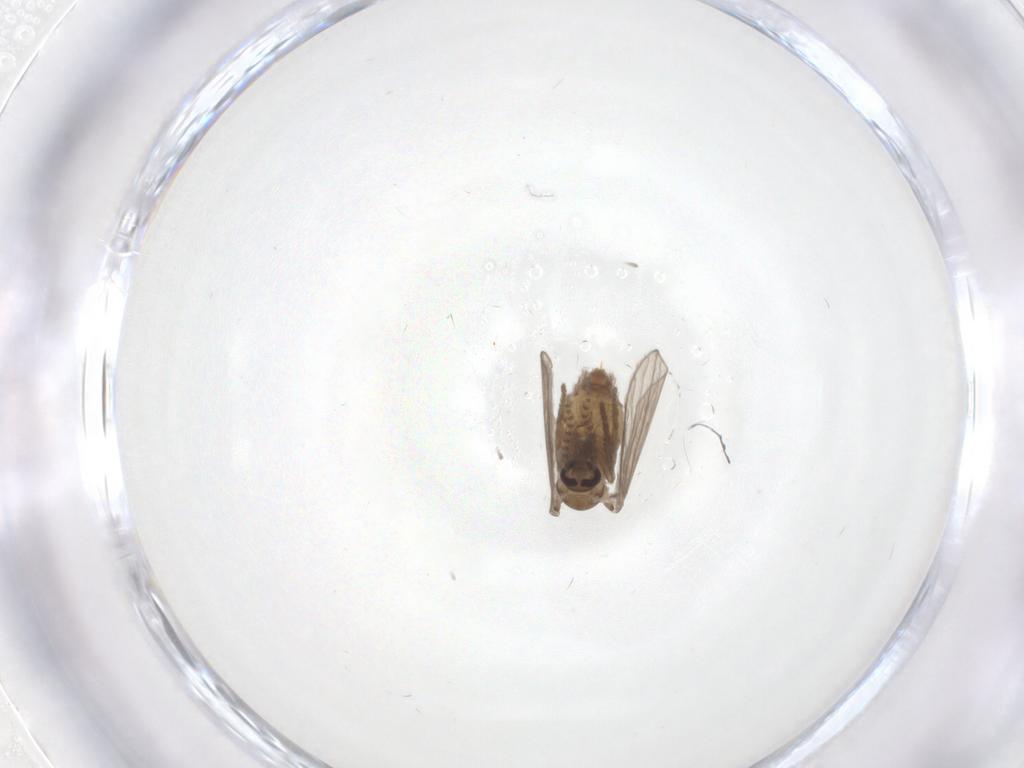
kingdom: Animalia
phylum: Arthropoda
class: Insecta
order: Diptera
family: Psychodidae
